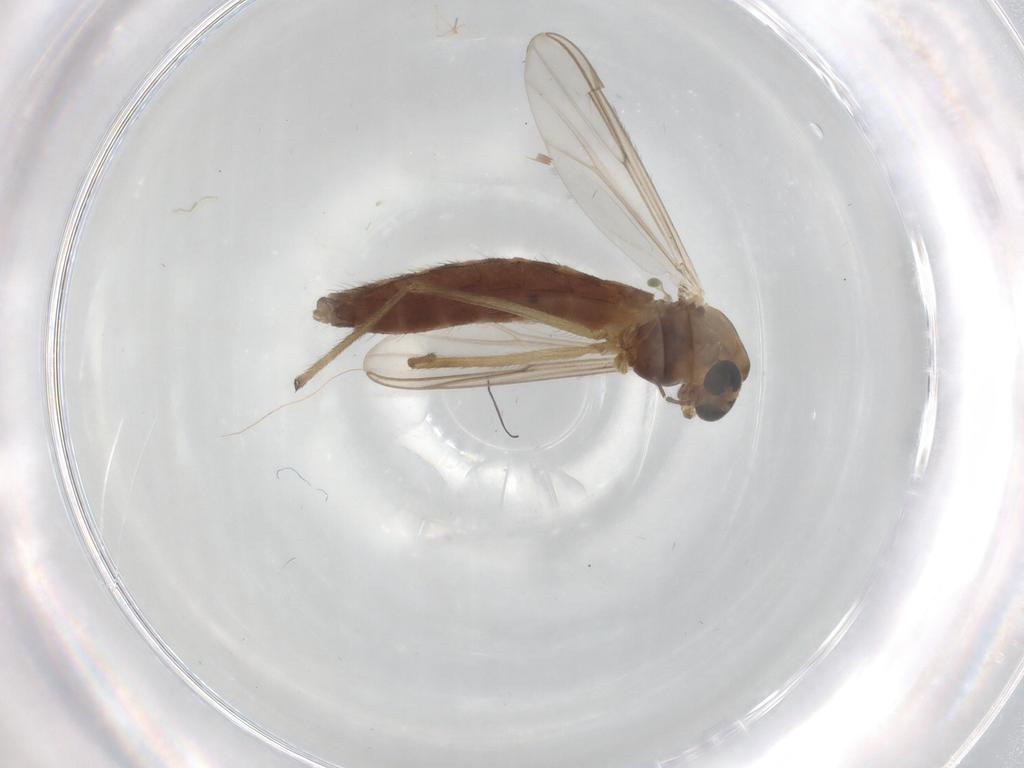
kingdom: Animalia
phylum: Arthropoda
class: Insecta
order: Diptera
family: Chironomidae
